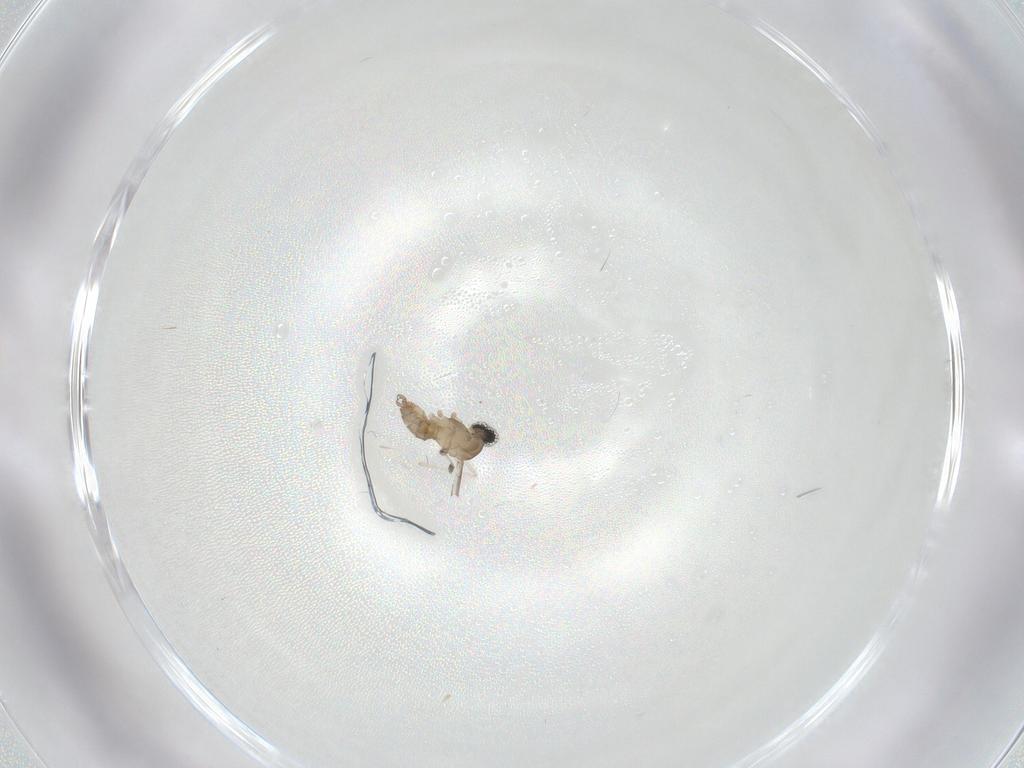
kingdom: Animalia
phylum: Arthropoda
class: Insecta
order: Diptera
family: Cecidomyiidae
